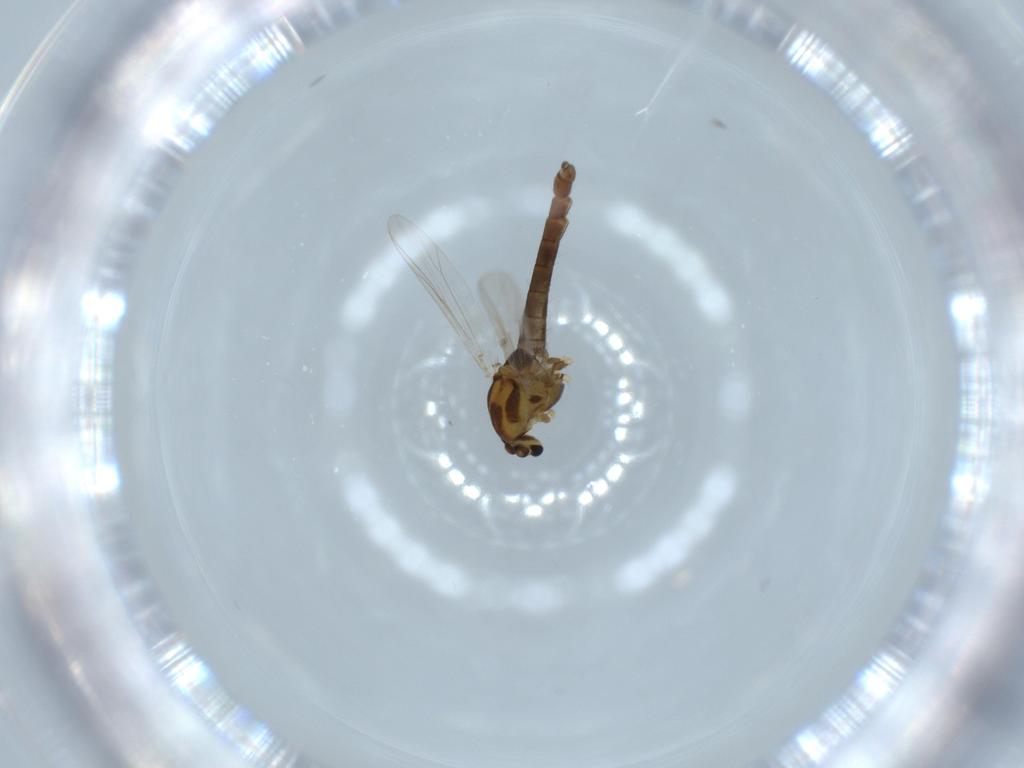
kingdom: Animalia
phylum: Arthropoda
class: Insecta
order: Diptera
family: Chironomidae
